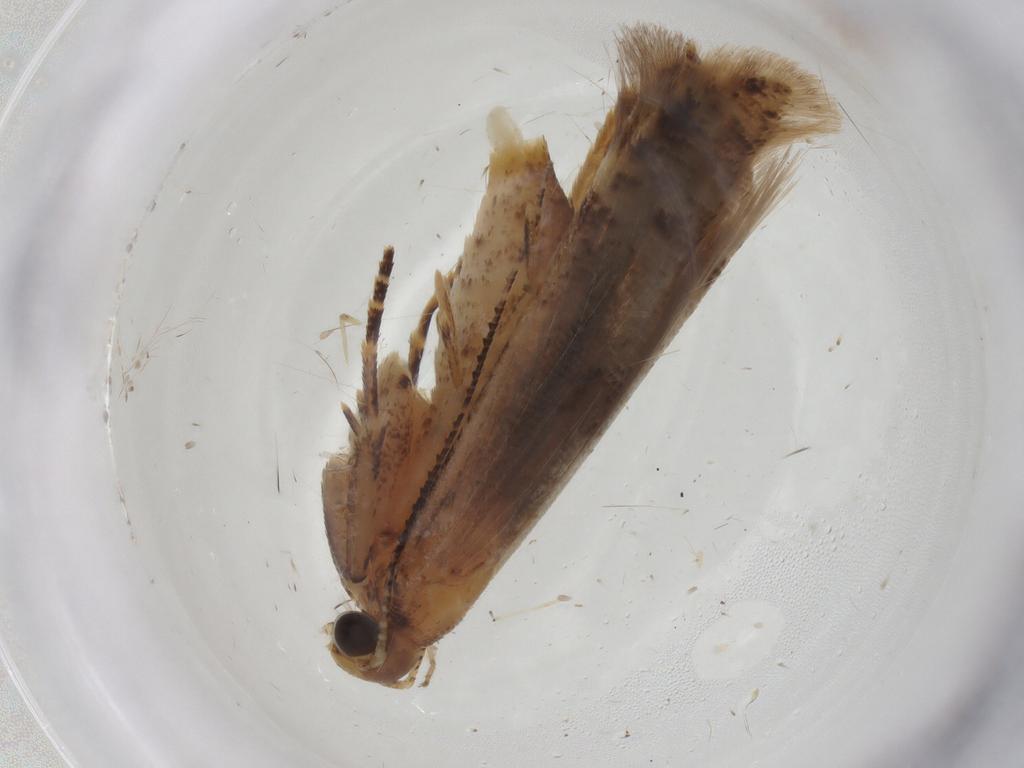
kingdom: Animalia
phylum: Arthropoda
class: Insecta
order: Lepidoptera
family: Gelechiidae
